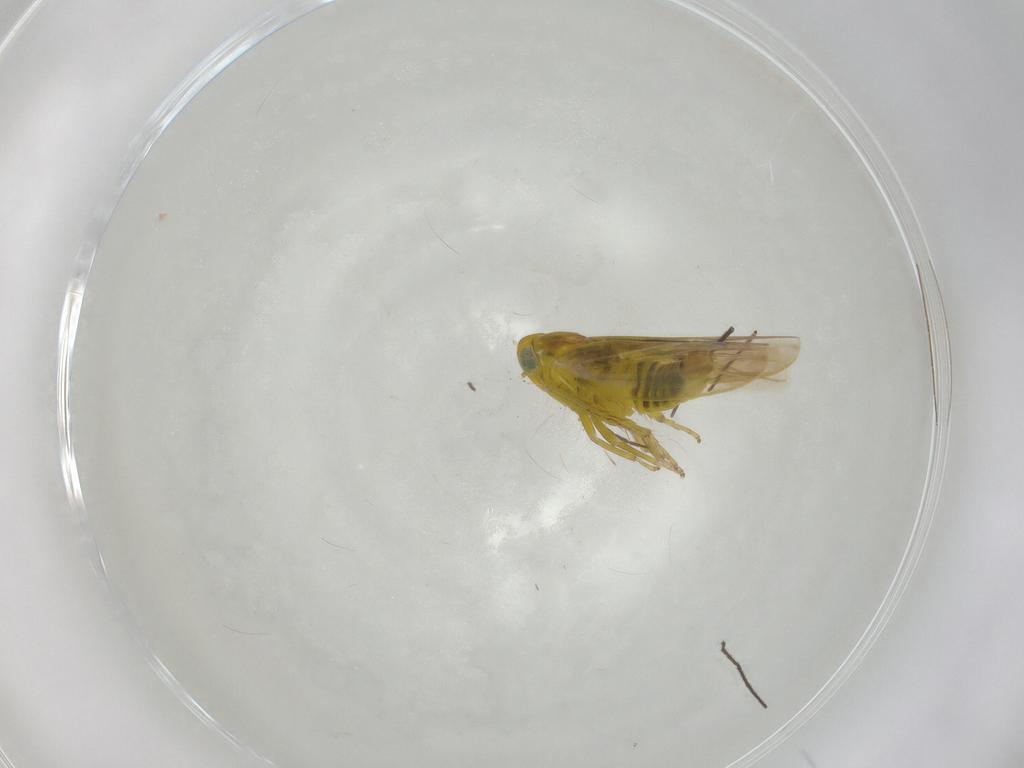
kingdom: Animalia
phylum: Arthropoda
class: Insecta
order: Hemiptera
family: Cicadellidae
